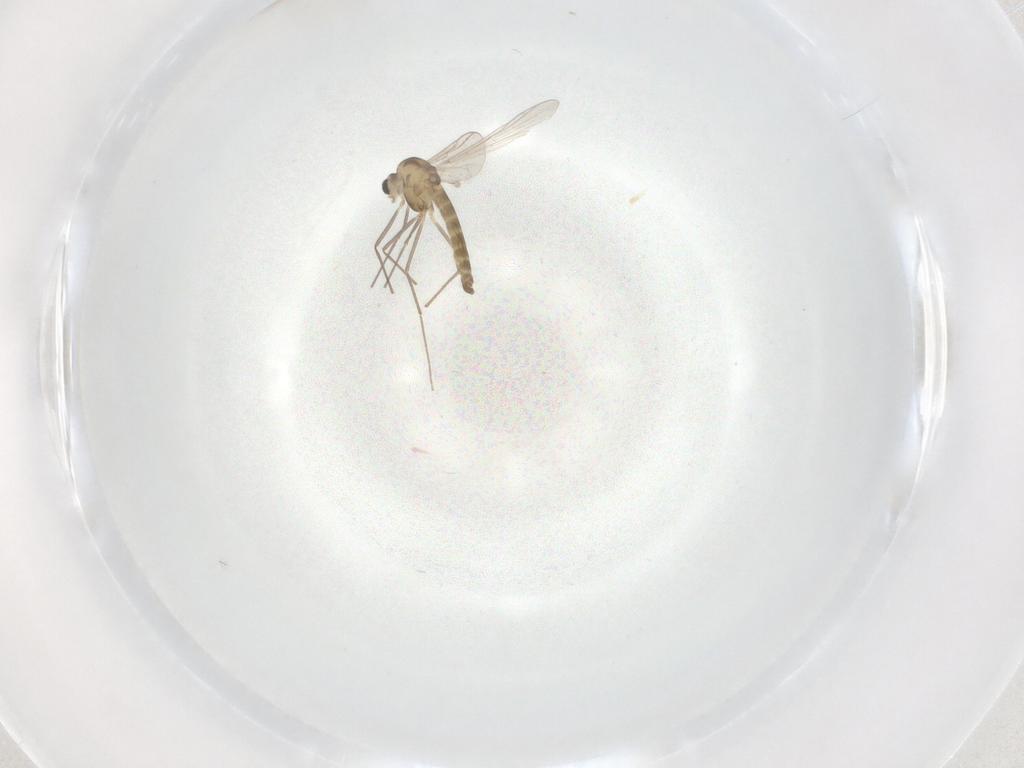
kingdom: Animalia
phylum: Arthropoda
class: Insecta
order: Diptera
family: Chironomidae
